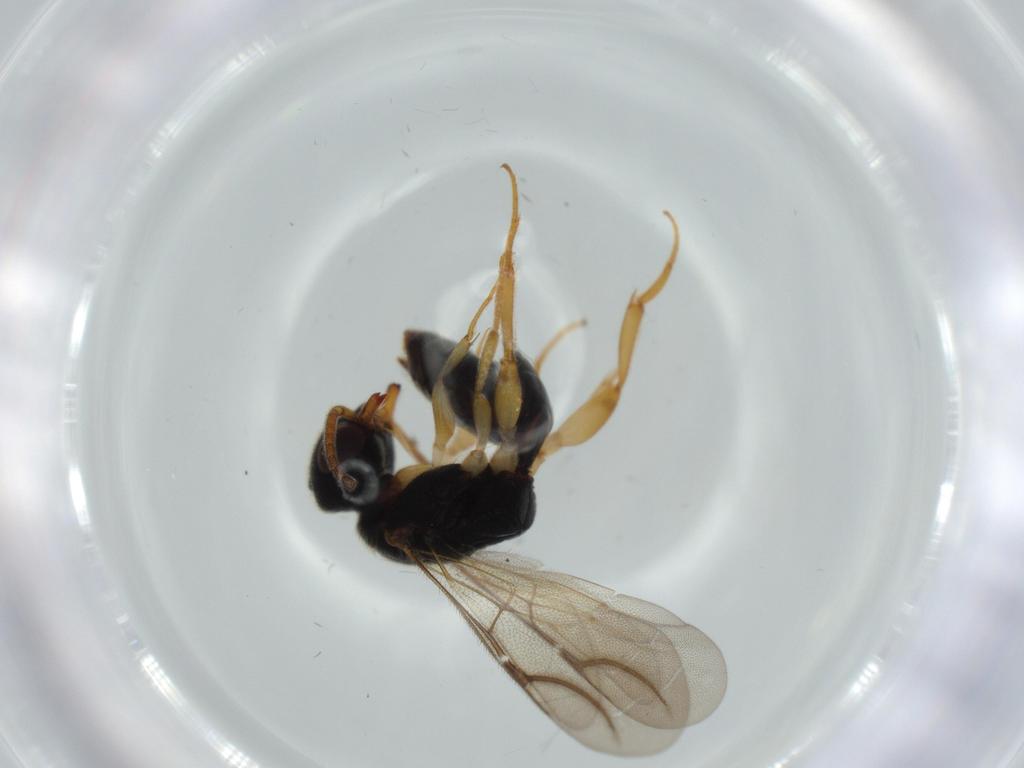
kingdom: Animalia
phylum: Arthropoda
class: Insecta
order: Hymenoptera
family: Bethylidae
